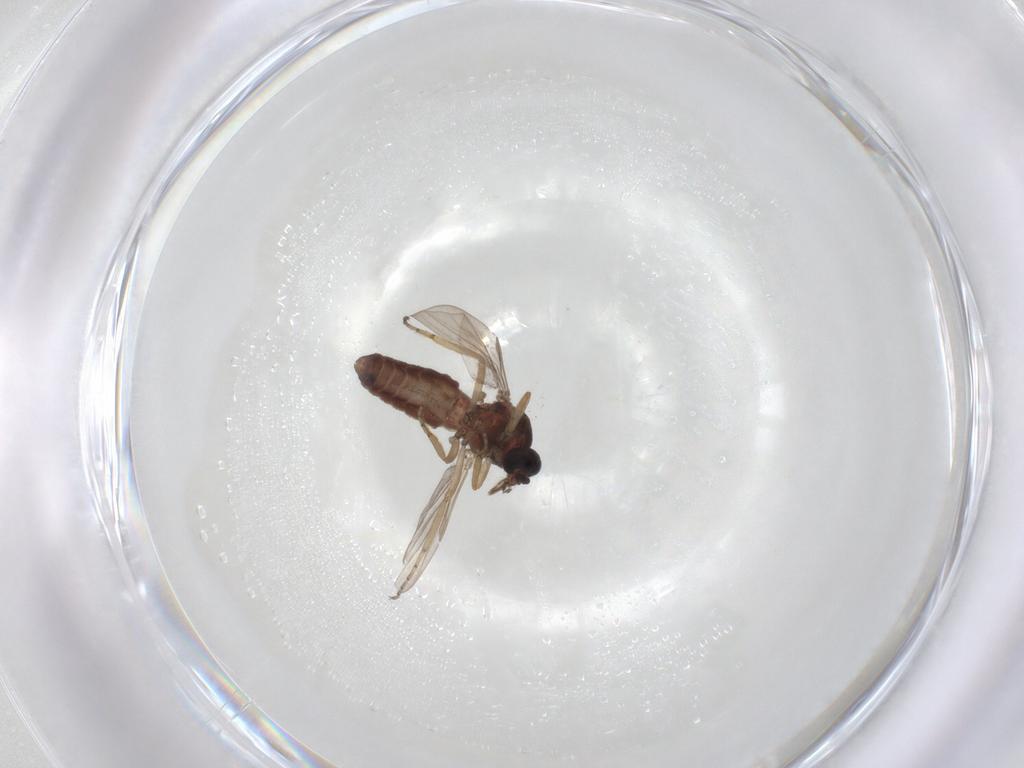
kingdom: Animalia
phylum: Arthropoda
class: Insecta
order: Diptera
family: Ceratopogonidae
